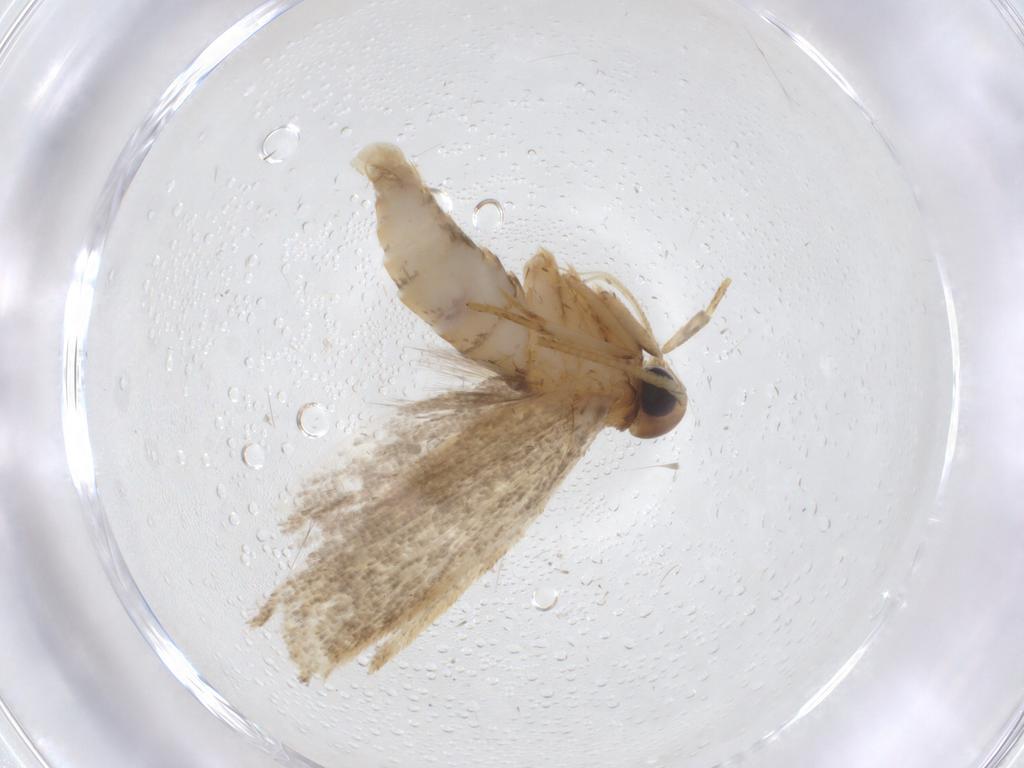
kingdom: Animalia
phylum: Arthropoda
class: Insecta
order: Lepidoptera
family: Oecophoridae
